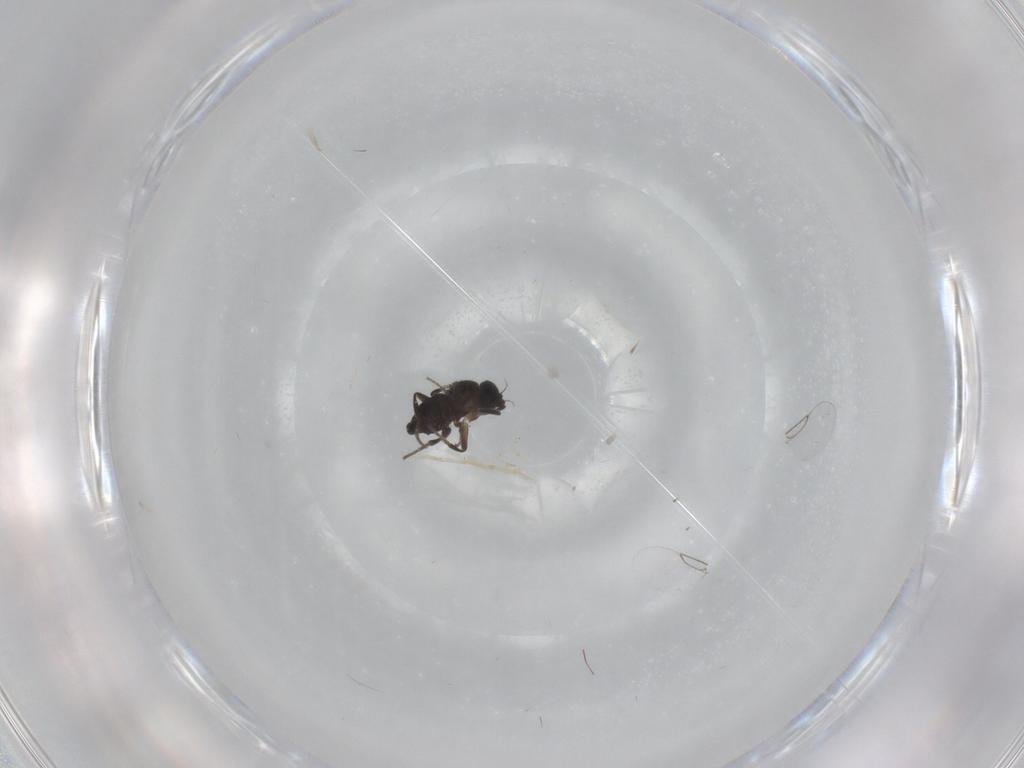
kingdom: Animalia
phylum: Arthropoda
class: Insecta
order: Diptera
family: Phoridae
